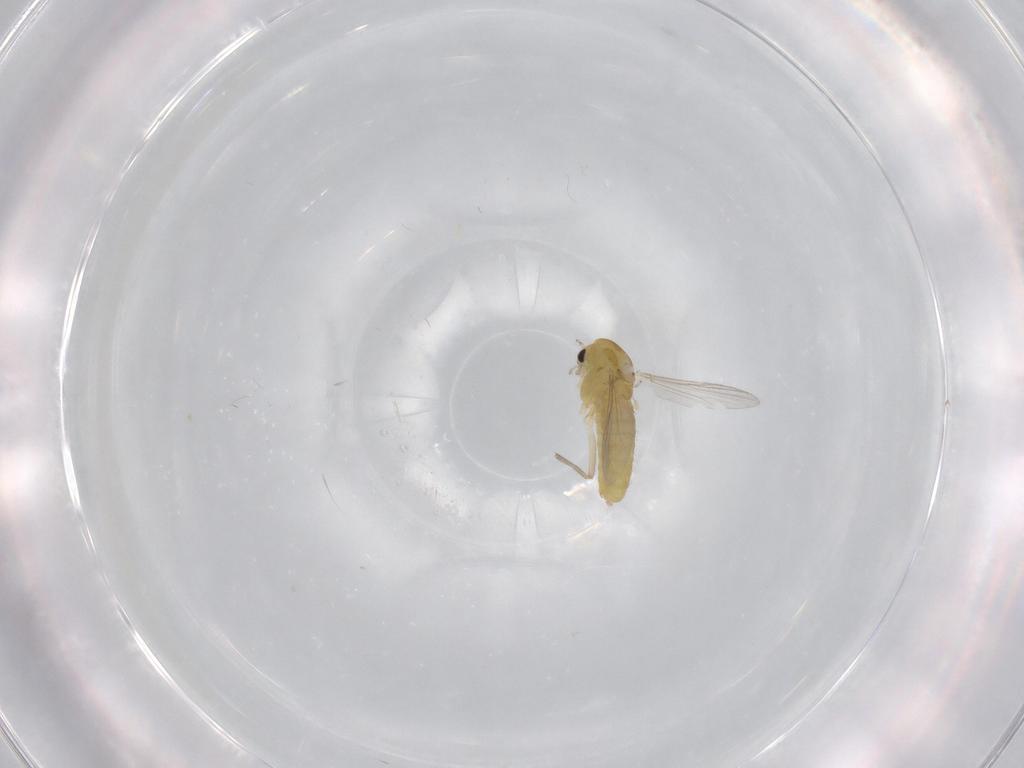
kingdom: Animalia
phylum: Arthropoda
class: Insecta
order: Diptera
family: Chironomidae
